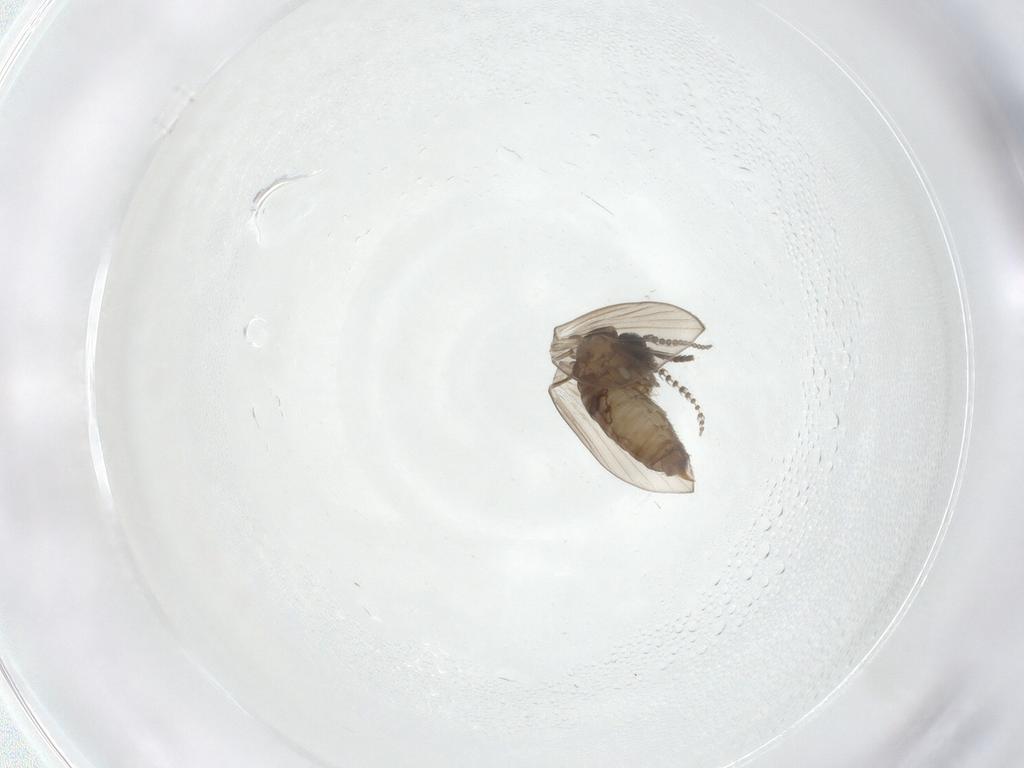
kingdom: Animalia
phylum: Arthropoda
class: Insecta
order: Diptera
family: Psychodidae
